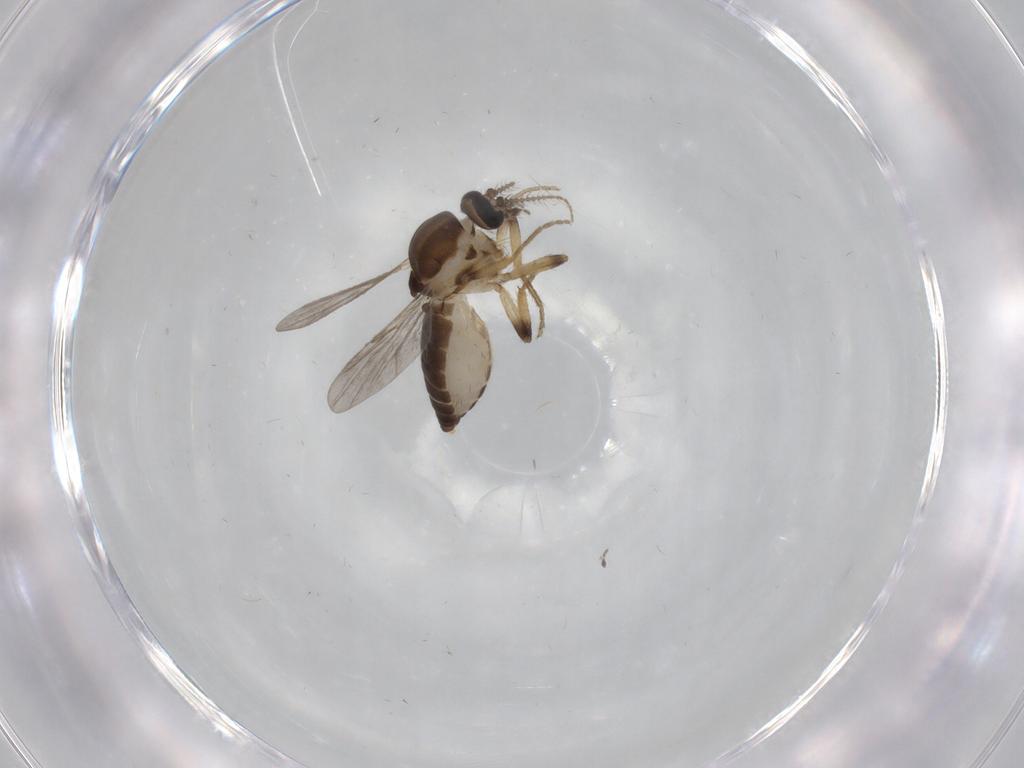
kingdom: Animalia
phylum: Arthropoda
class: Insecta
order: Diptera
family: Ceratopogonidae
